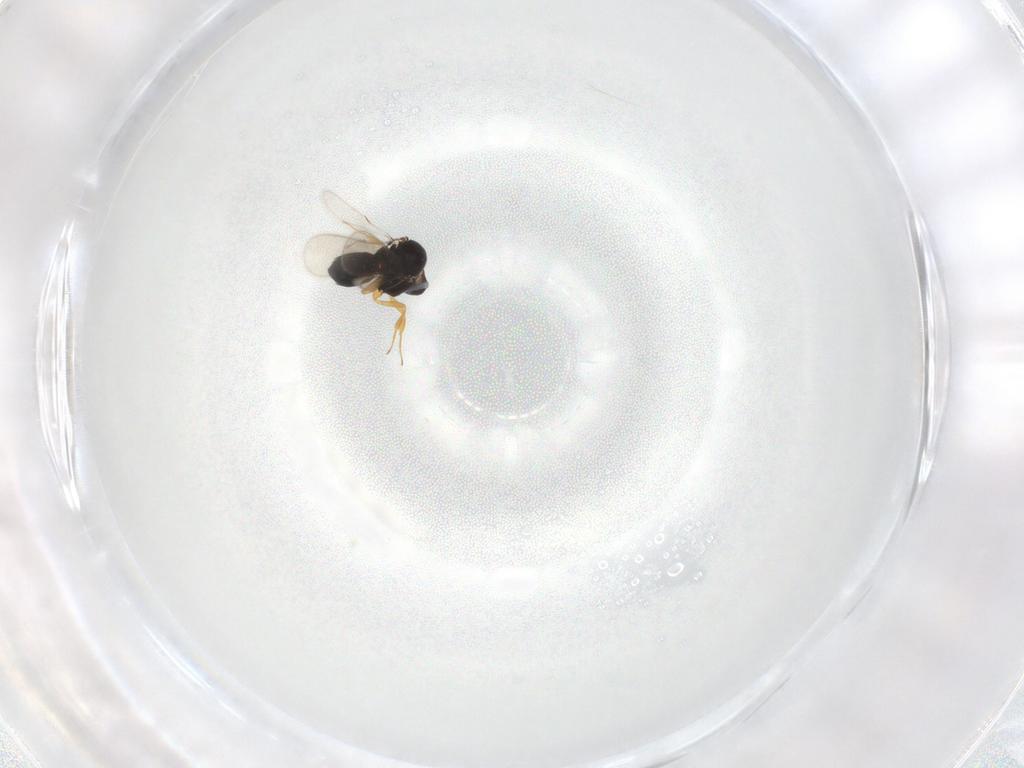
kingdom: Animalia
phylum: Arthropoda
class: Insecta
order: Hymenoptera
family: Scelionidae
